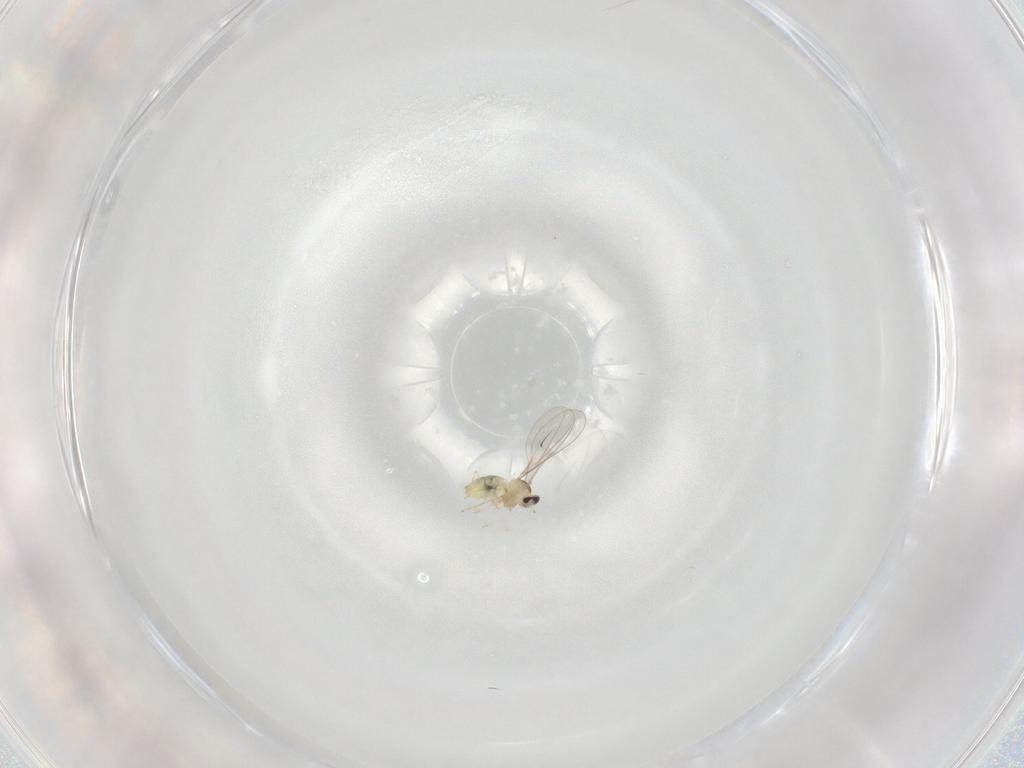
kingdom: Animalia
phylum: Arthropoda
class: Insecta
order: Diptera
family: Cecidomyiidae
